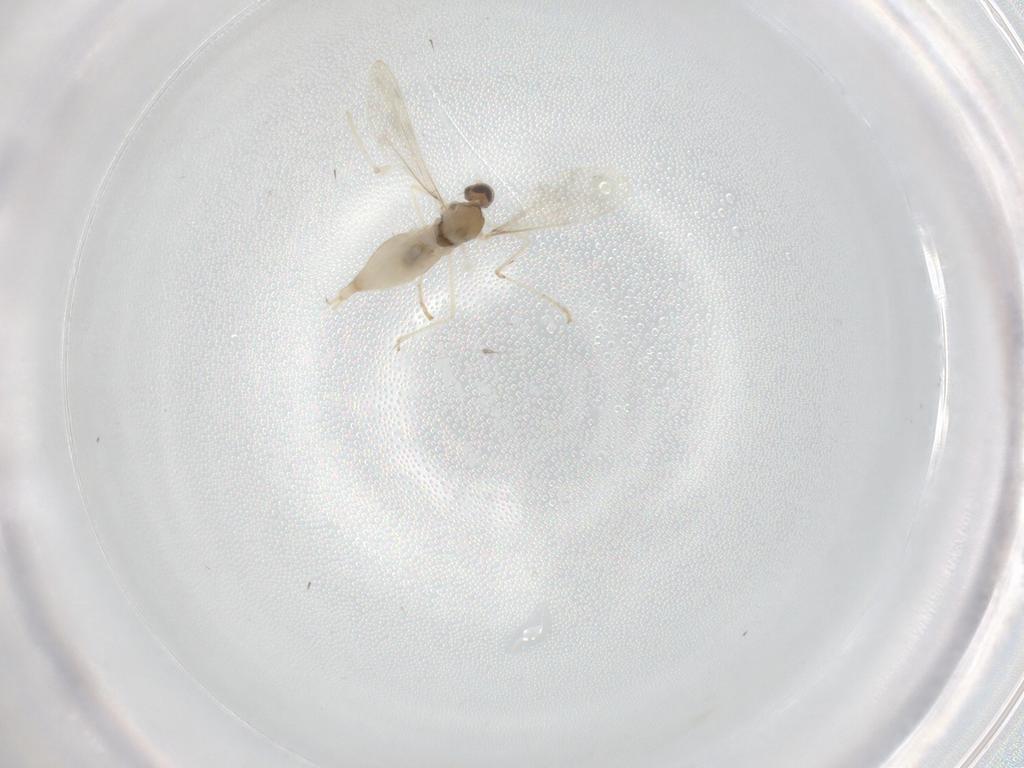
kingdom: Animalia
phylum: Arthropoda
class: Insecta
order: Diptera
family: Cecidomyiidae
